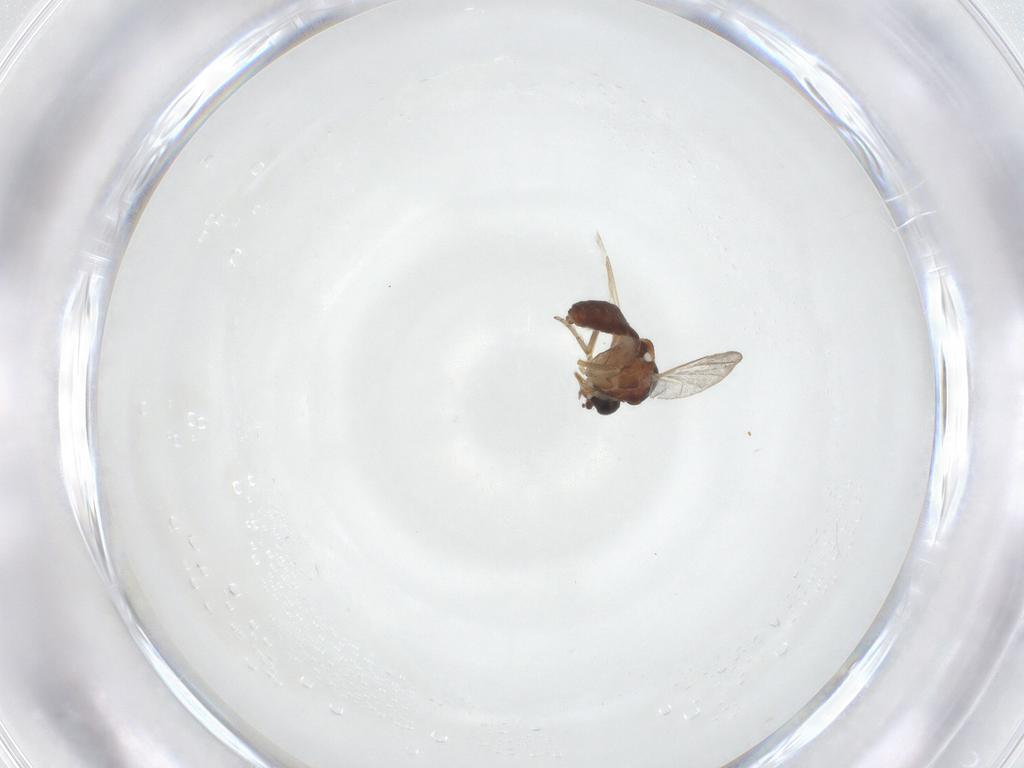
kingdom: Animalia
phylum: Arthropoda
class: Insecta
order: Diptera
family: Ceratopogonidae
